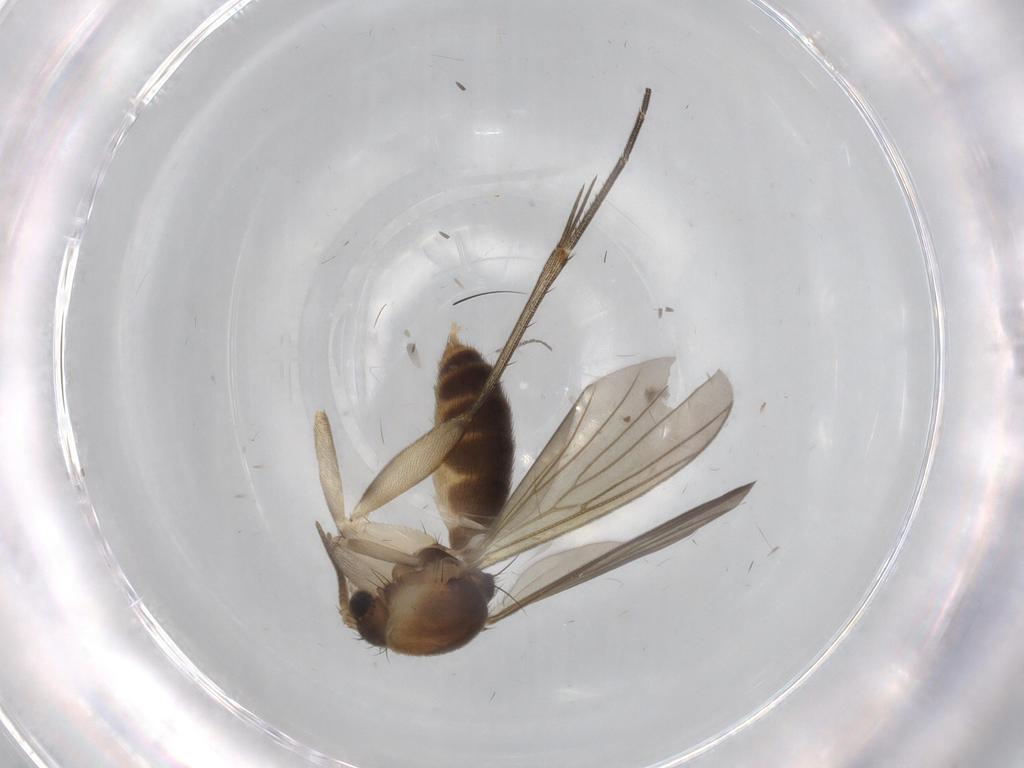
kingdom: Animalia
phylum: Arthropoda
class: Insecta
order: Diptera
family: Mycetophilidae
